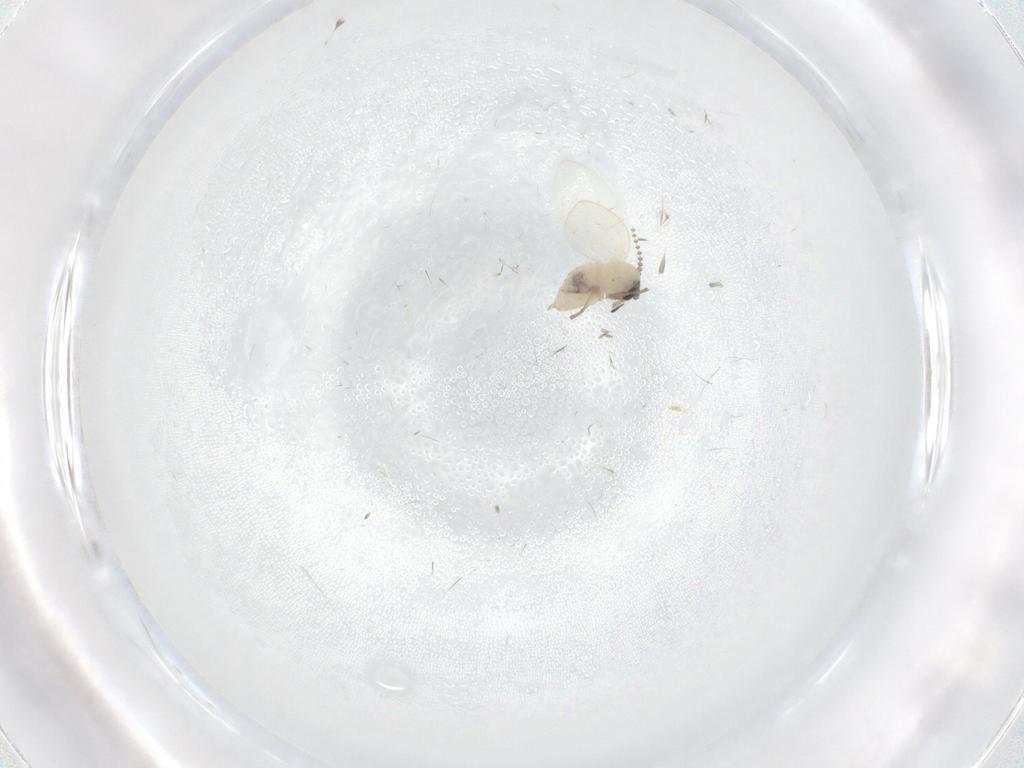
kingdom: Animalia
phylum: Arthropoda
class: Insecta
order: Diptera
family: Psychodidae
